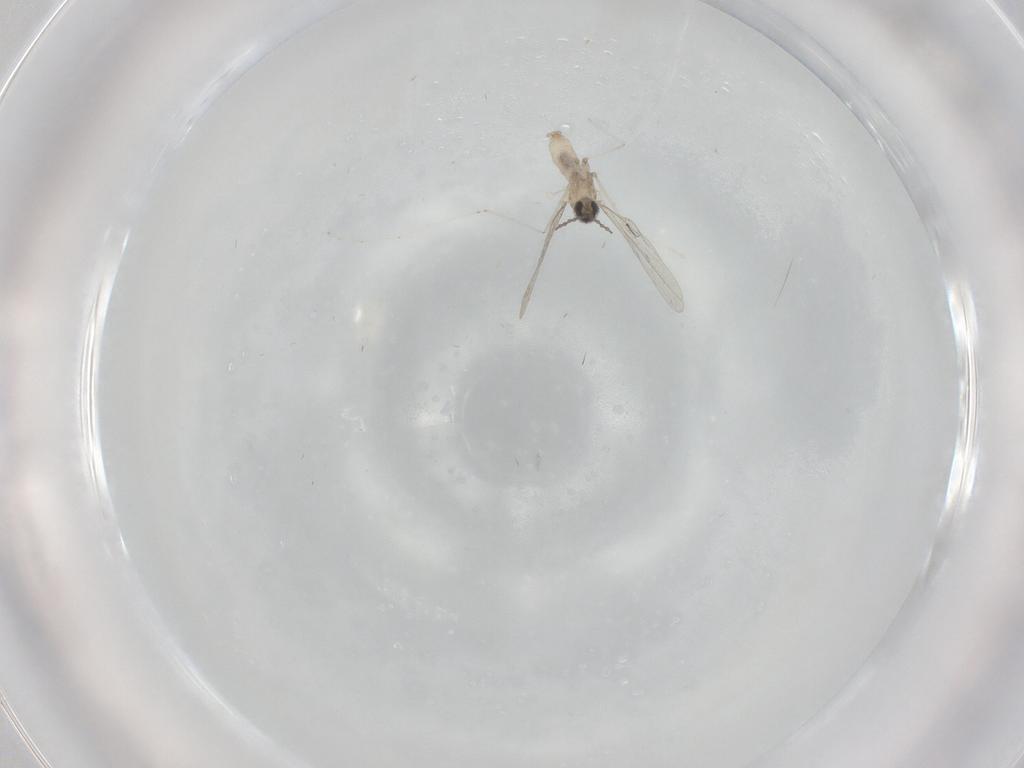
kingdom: Animalia
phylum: Arthropoda
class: Insecta
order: Diptera
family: Cecidomyiidae
